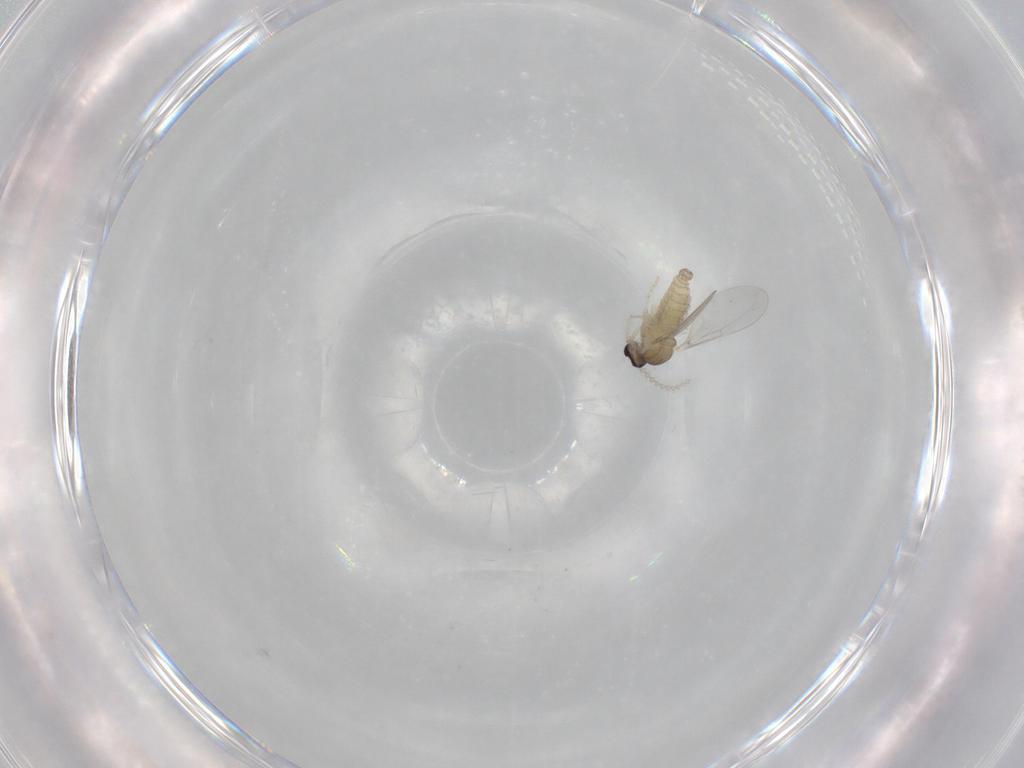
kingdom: Animalia
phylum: Arthropoda
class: Insecta
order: Diptera
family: Cecidomyiidae
